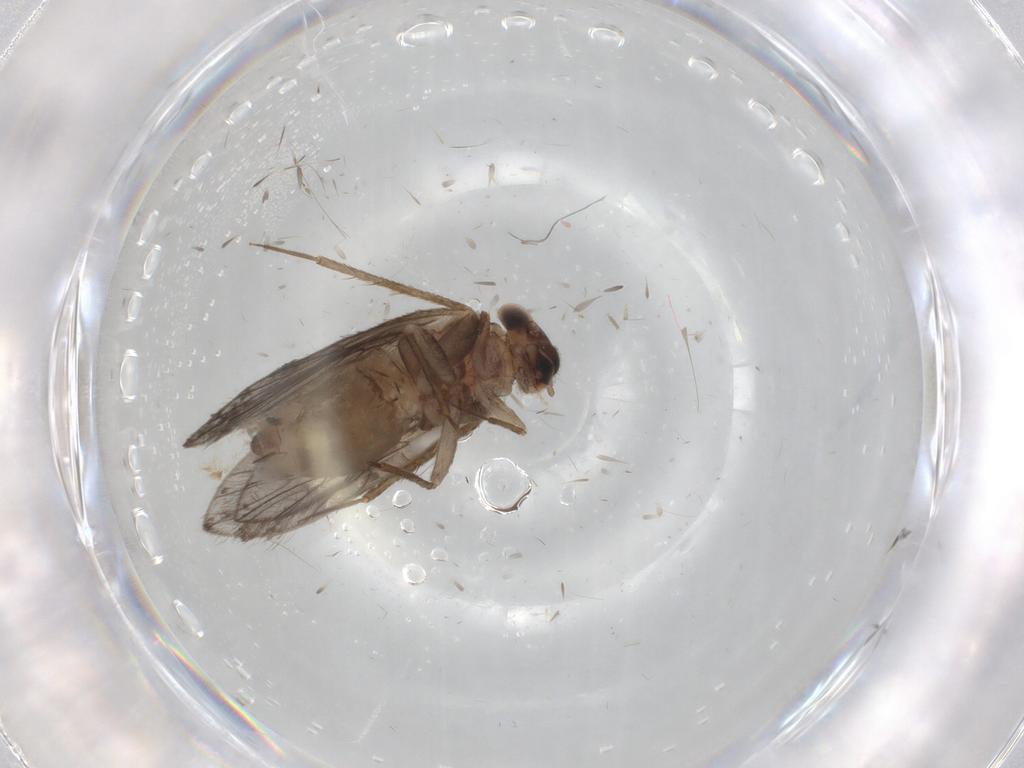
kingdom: Animalia
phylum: Arthropoda
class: Insecta
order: Psocodea
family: Lepidopsocidae
